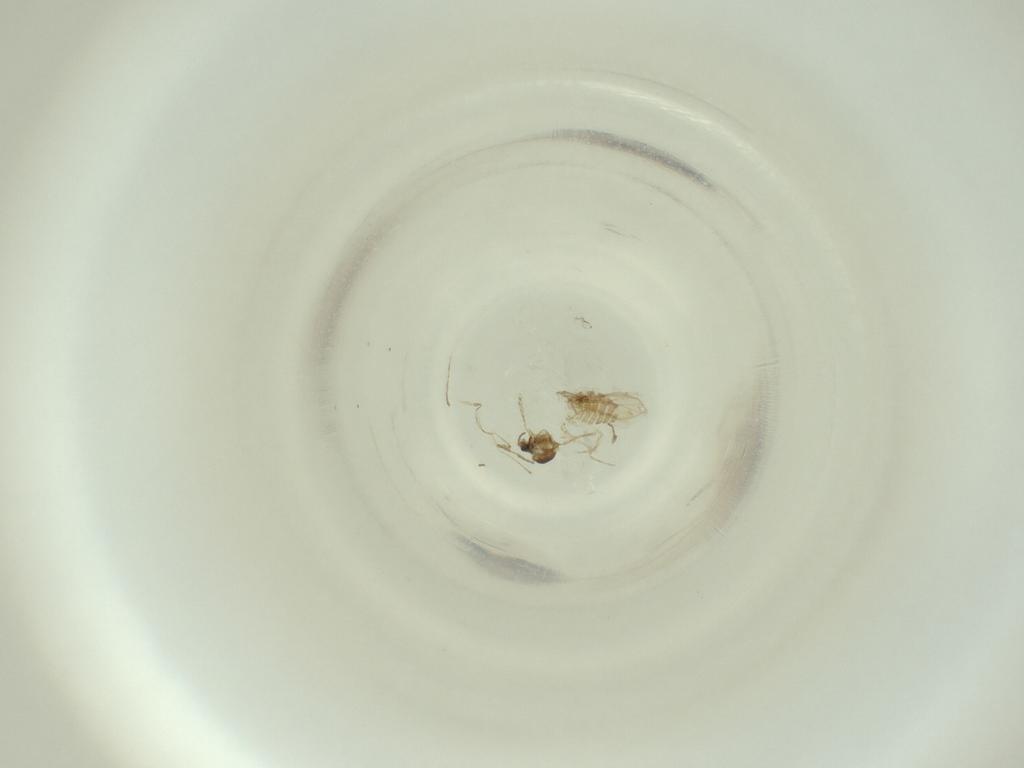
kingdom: Animalia
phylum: Arthropoda
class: Insecta
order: Diptera
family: Cecidomyiidae
